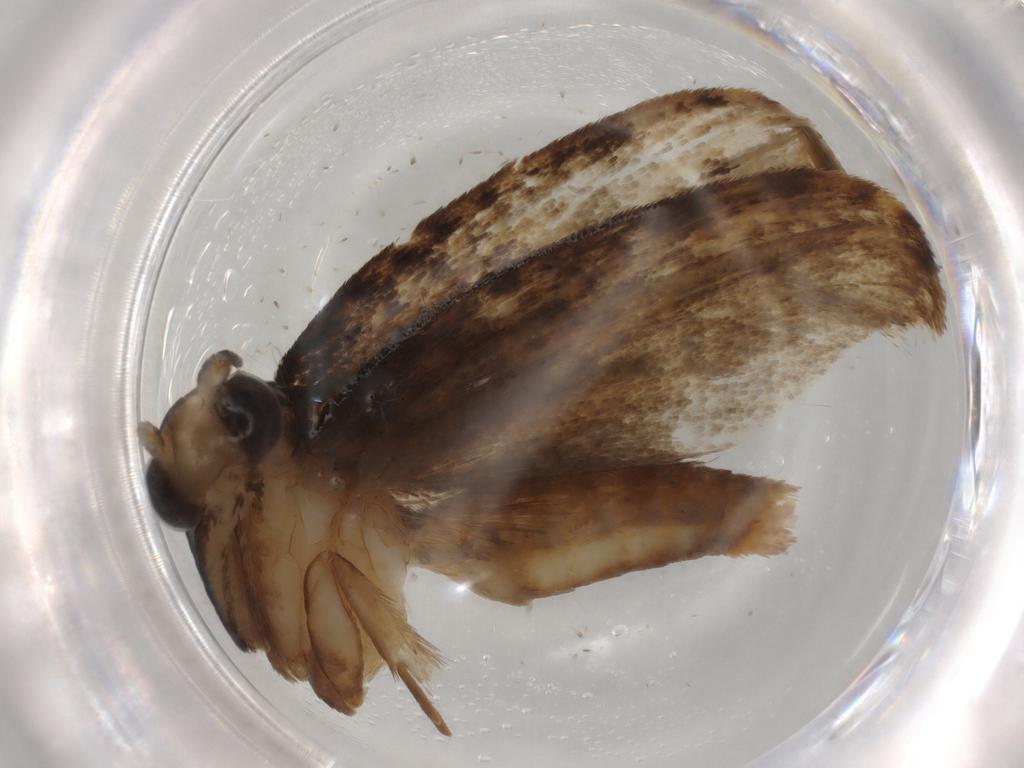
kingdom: Animalia
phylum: Arthropoda
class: Insecta
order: Lepidoptera
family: Tineidae
